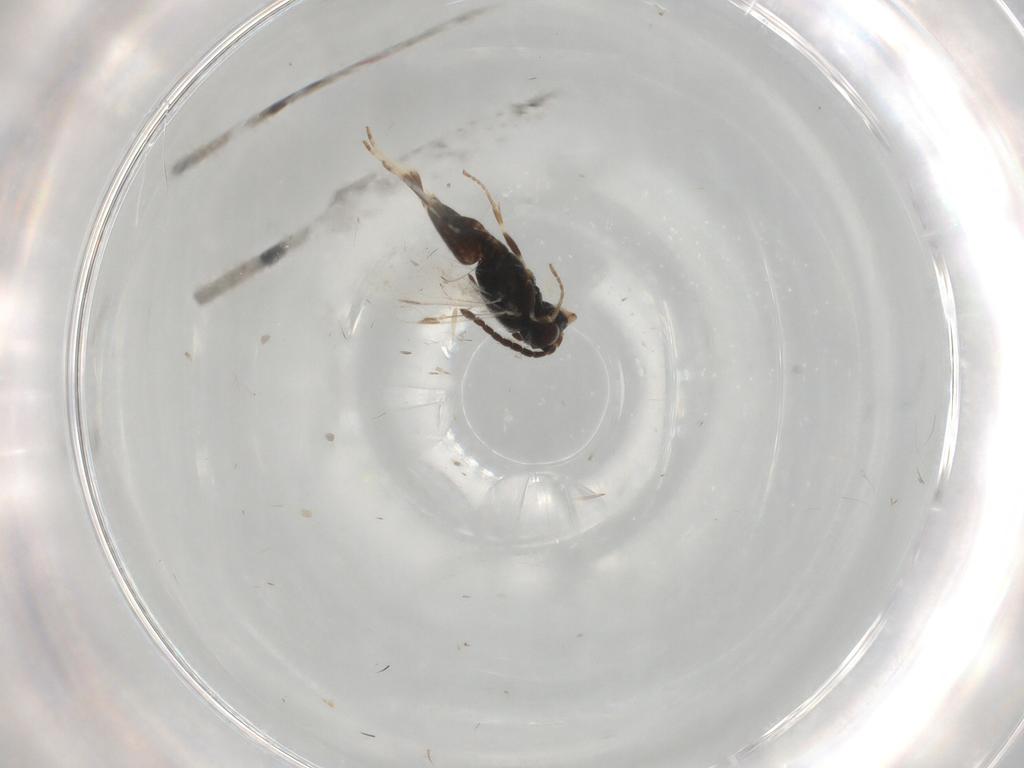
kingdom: Animalia
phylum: Arthropoda
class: Insecta
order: Hymenoptera
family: Dryinidae
